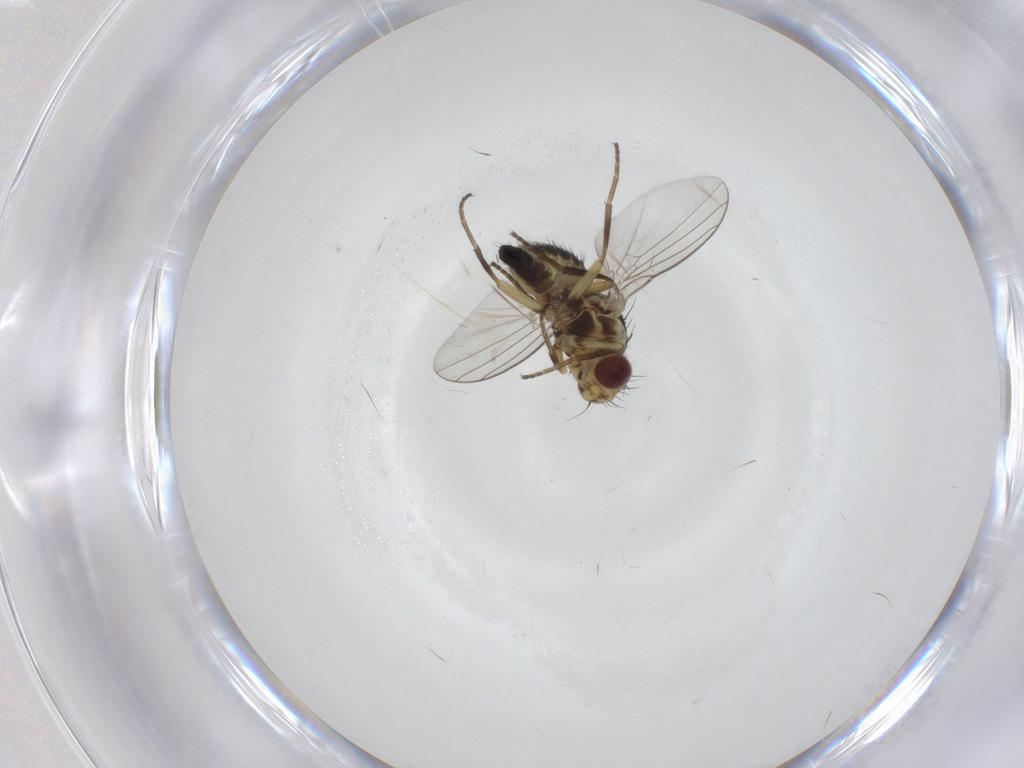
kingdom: Animalia
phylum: Arthropoda
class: Insecta
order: Diptera
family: Agromyzidae
